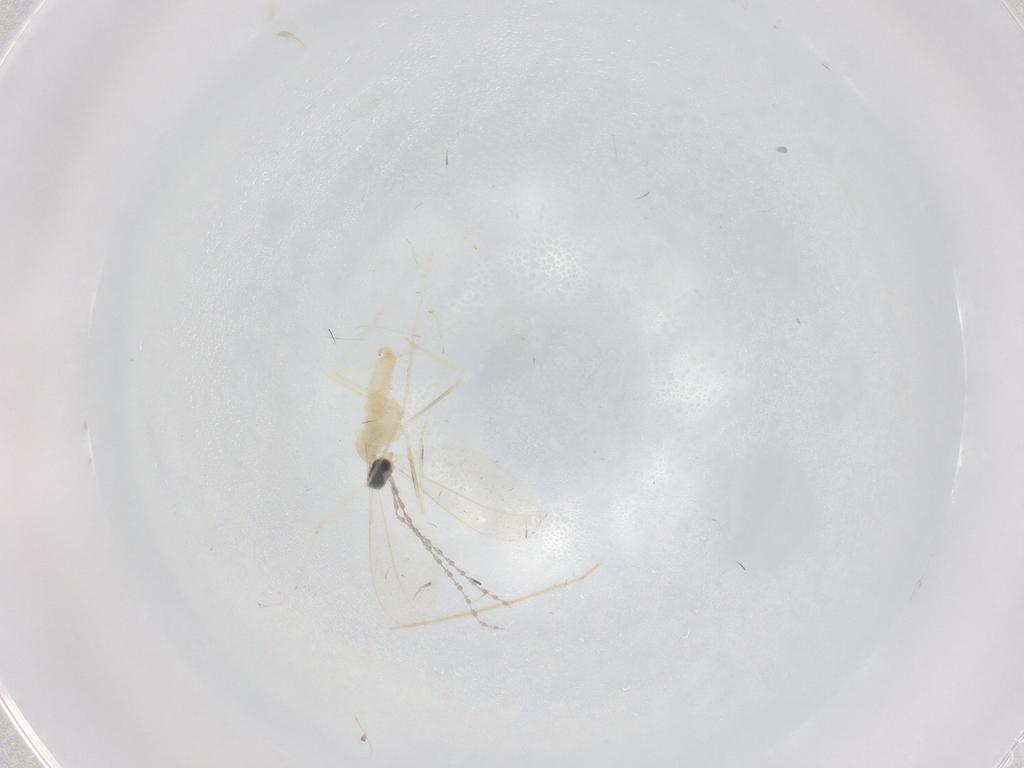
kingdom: Animalia
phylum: Arthropoda
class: Insecta
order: Diptera
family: Cecidomyiidae
